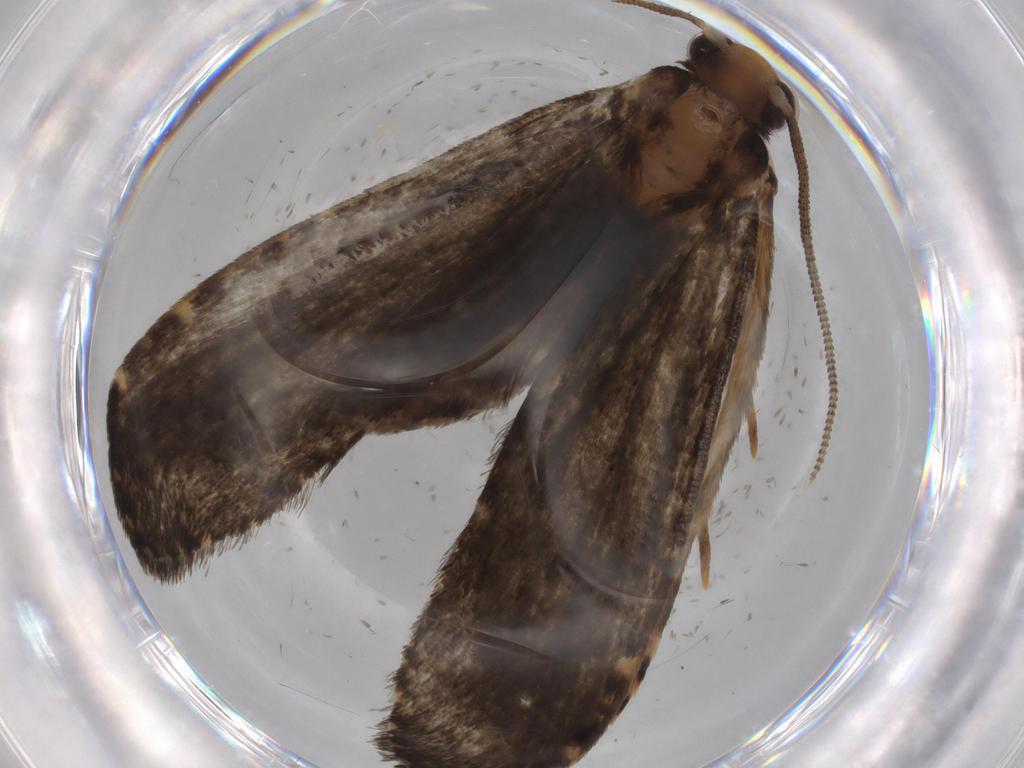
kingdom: Animalia
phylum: Arthropoda
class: Insecta
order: Lepidoptera
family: Tineidae
